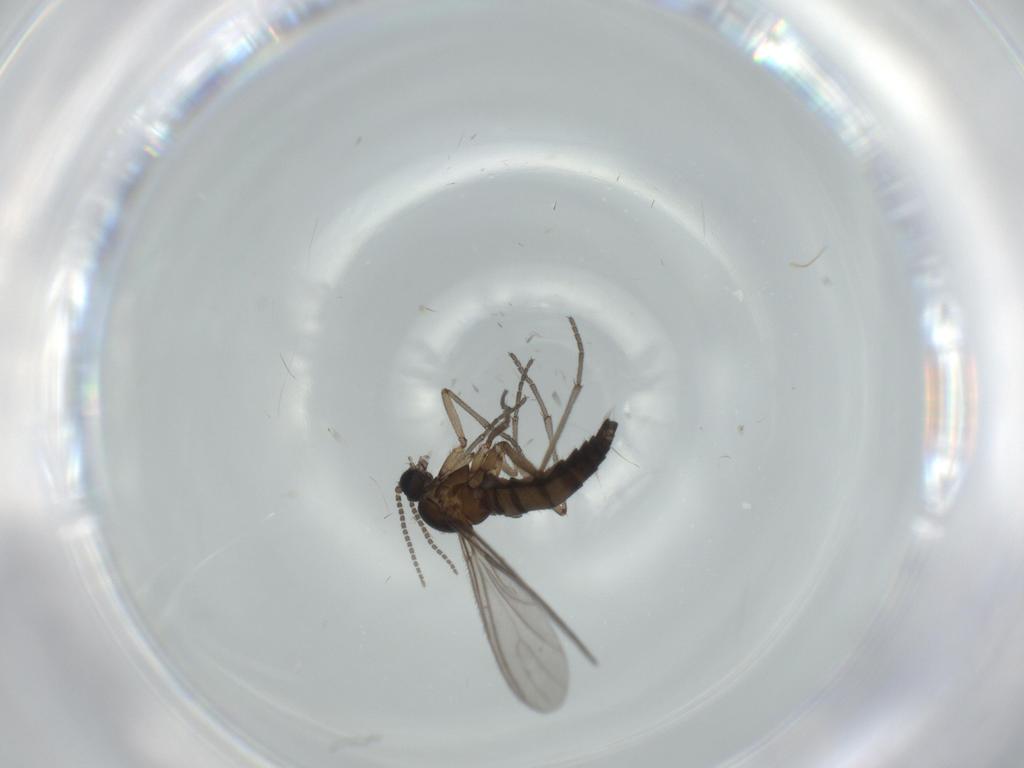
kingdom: Animalia
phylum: Arthropoda
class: Insecta
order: Diptera
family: Sciaridae
